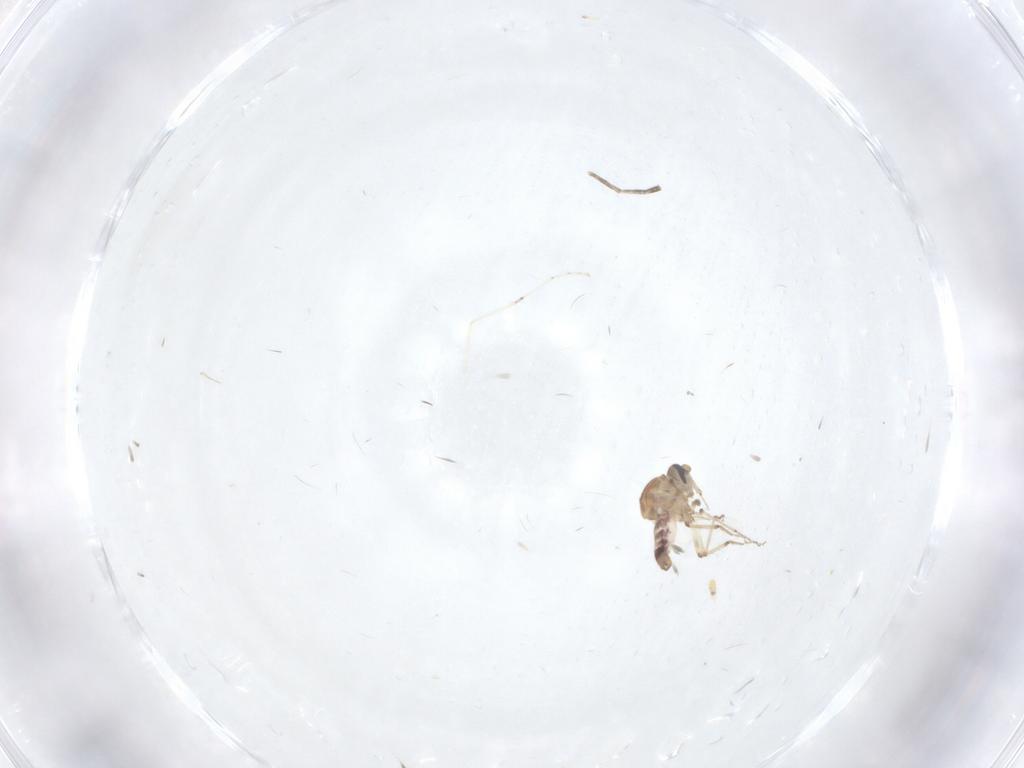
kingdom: Animalia
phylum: Arthropoda
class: Insecta
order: Diptera
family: Ceratopogonidae
